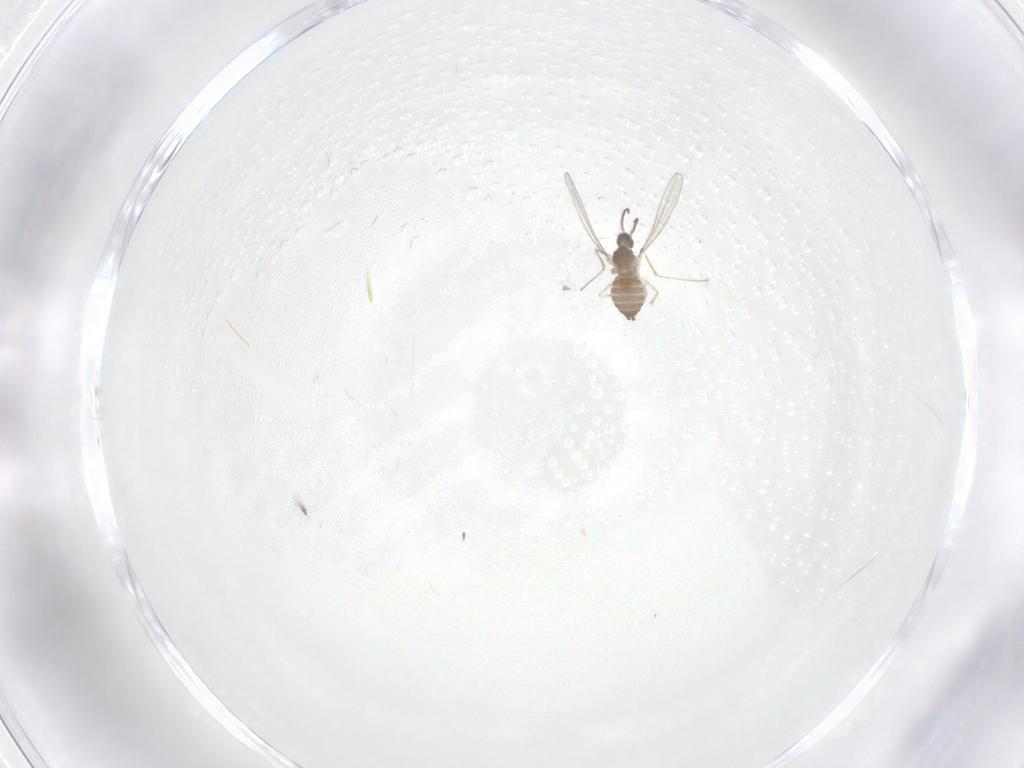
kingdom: Animalia
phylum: Arthropoda
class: Insecta
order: Diptera
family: Cecidomyiidae
